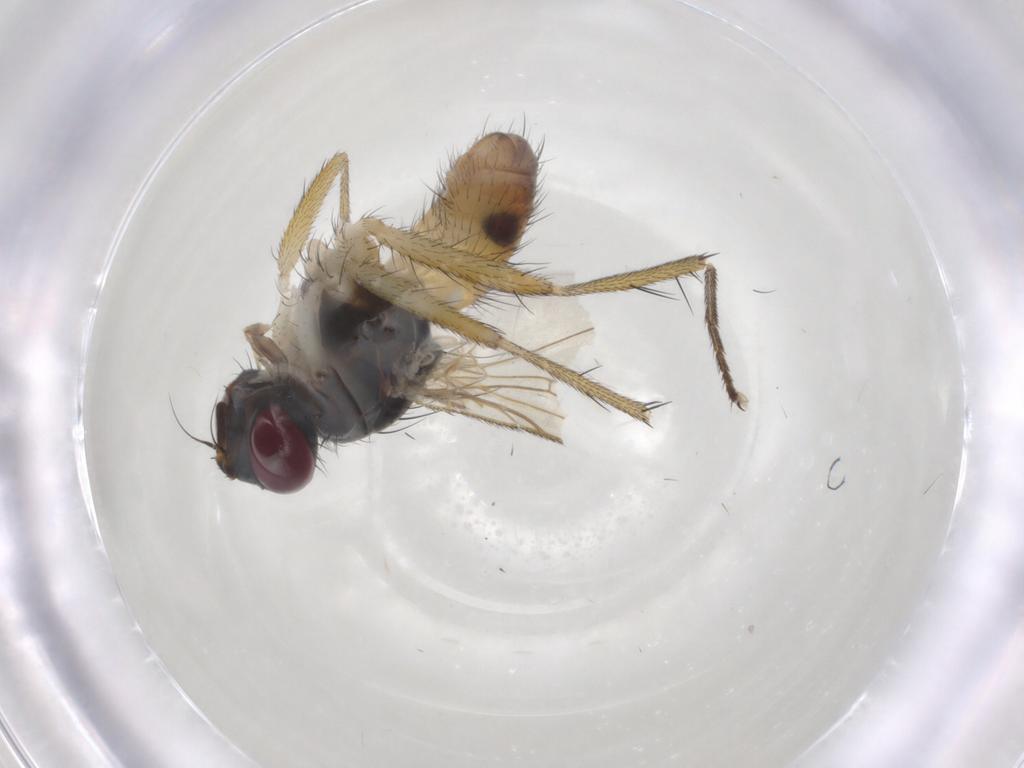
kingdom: Animalia
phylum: Arthropoda
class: Insecta
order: Diptera
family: Muscidae
